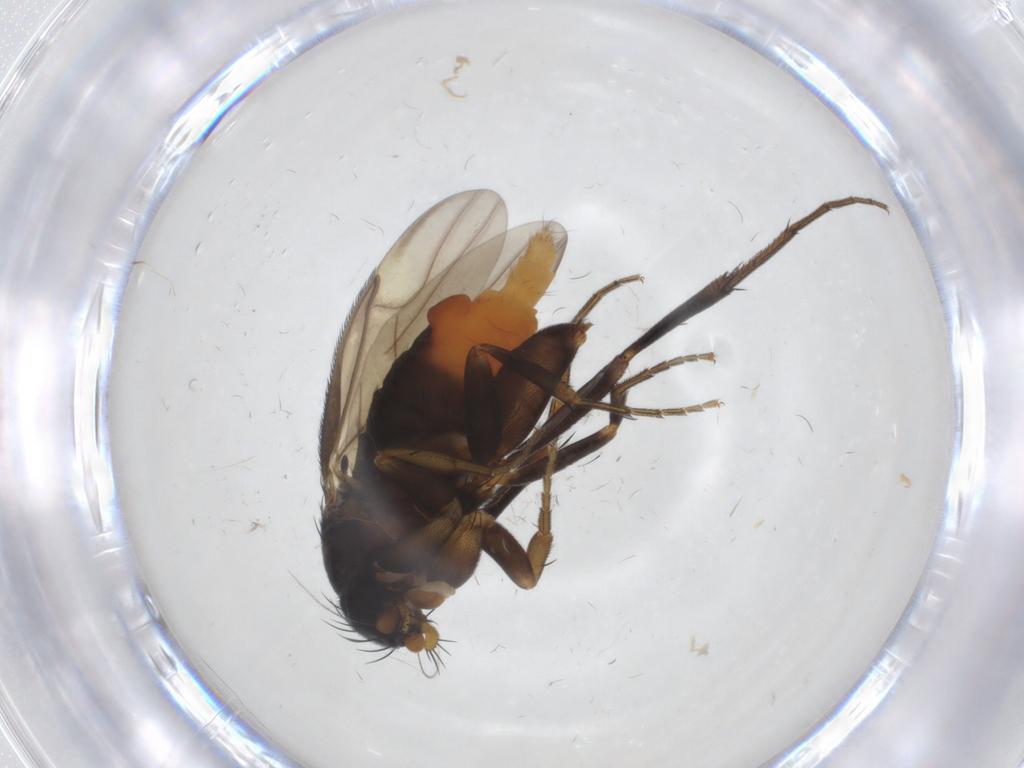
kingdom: Animalia
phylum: Arthropoda
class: Insecta
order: Diptera
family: Phoridae
